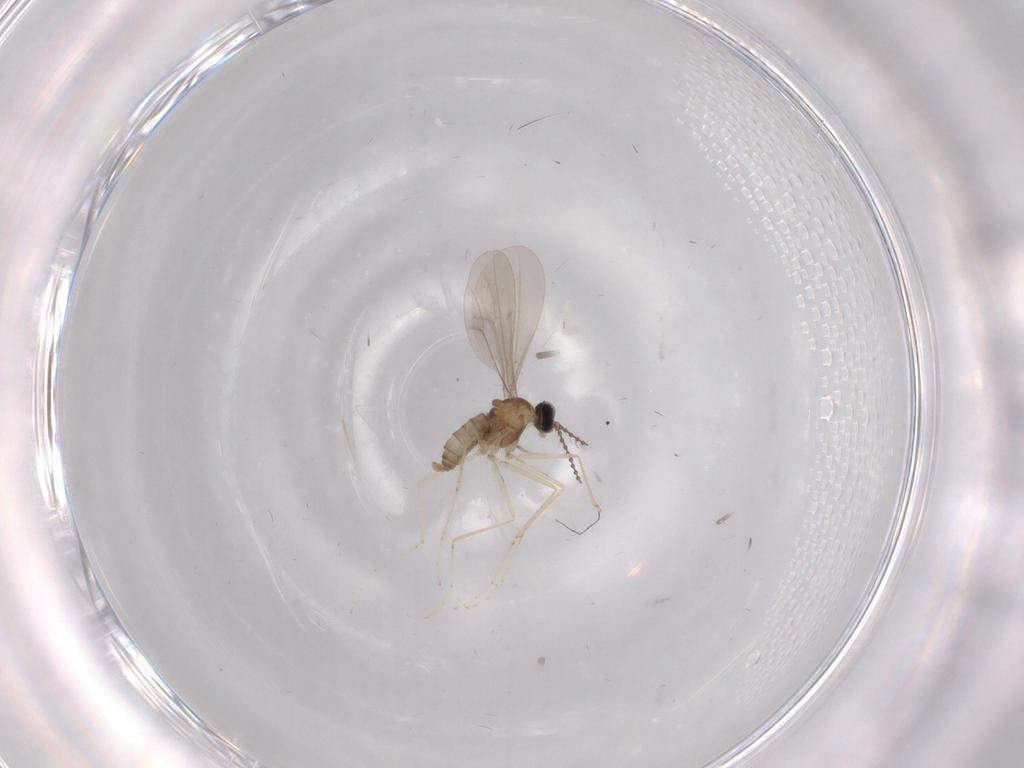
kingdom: Animalia
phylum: Arthropoda
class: Insecta
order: Diptera
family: Cecidomyiidae
